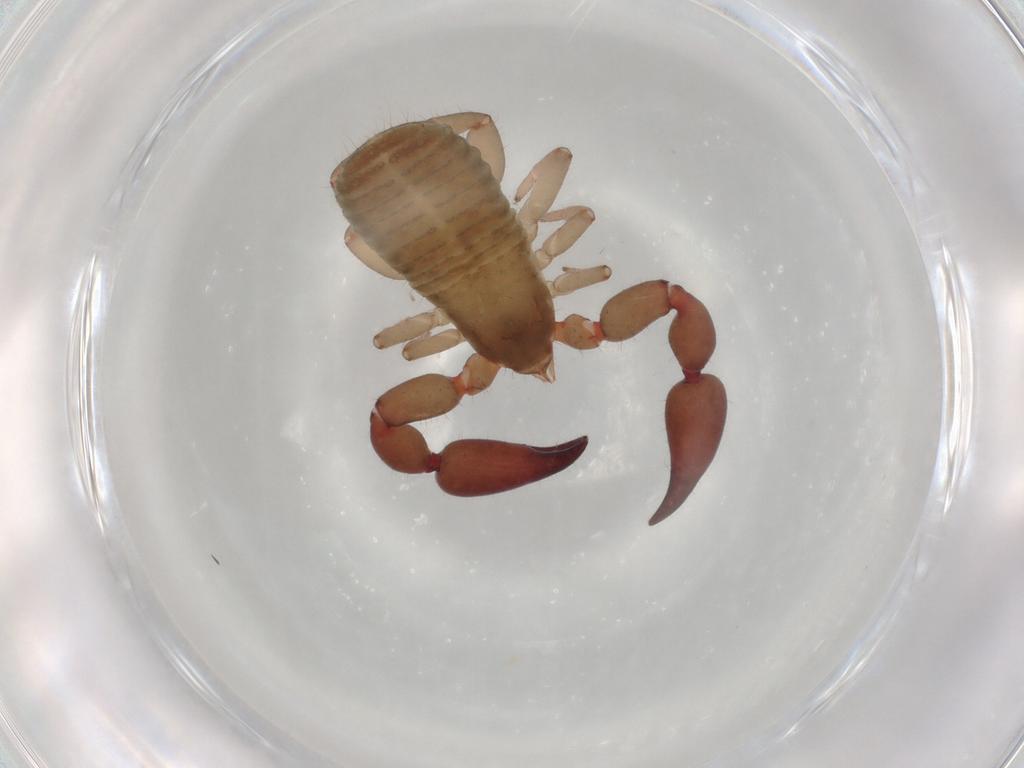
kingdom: Animalia
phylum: Arthropoda
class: Arachnida
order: Pseudoscorpiones
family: Atemnidae
